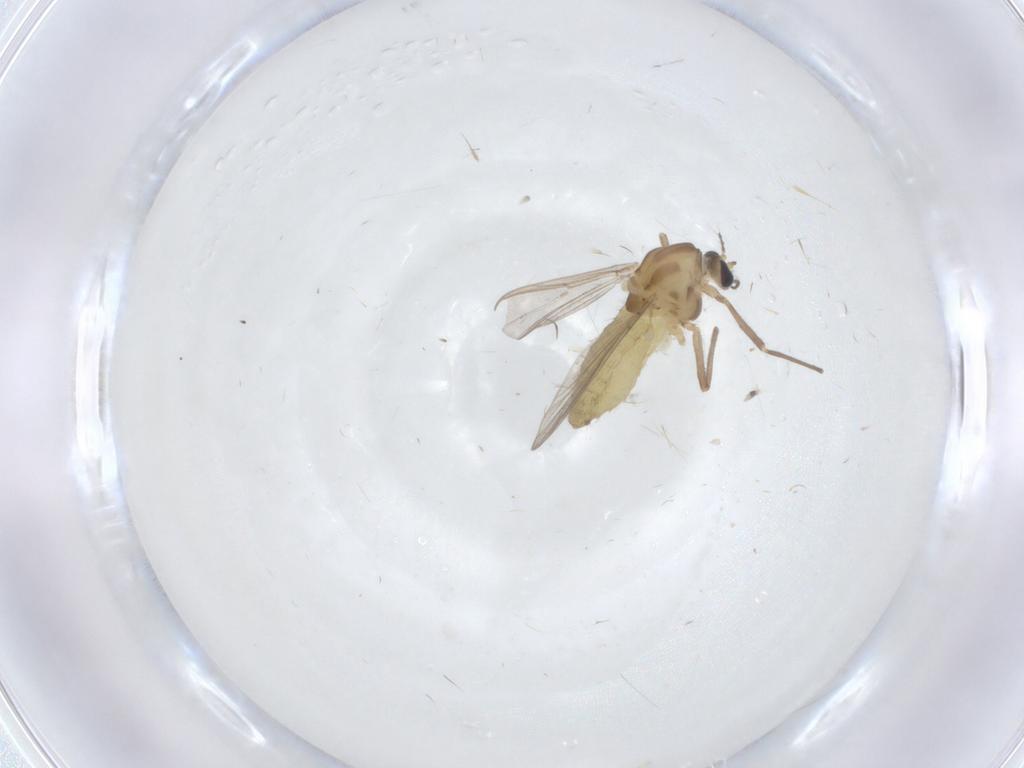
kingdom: Animalia
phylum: Arthropoda
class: Insecta
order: Diptera
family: Chironomidae
